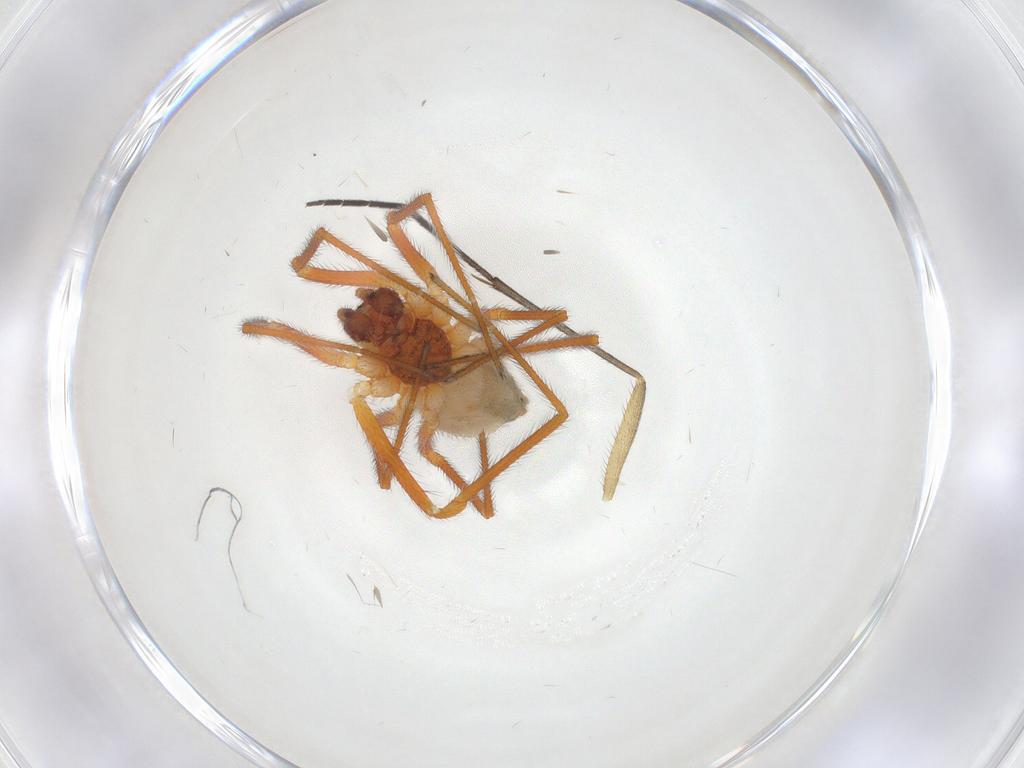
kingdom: Animalia
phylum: Arthropoda
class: Arachnida
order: Araneae
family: Linyphiidae
